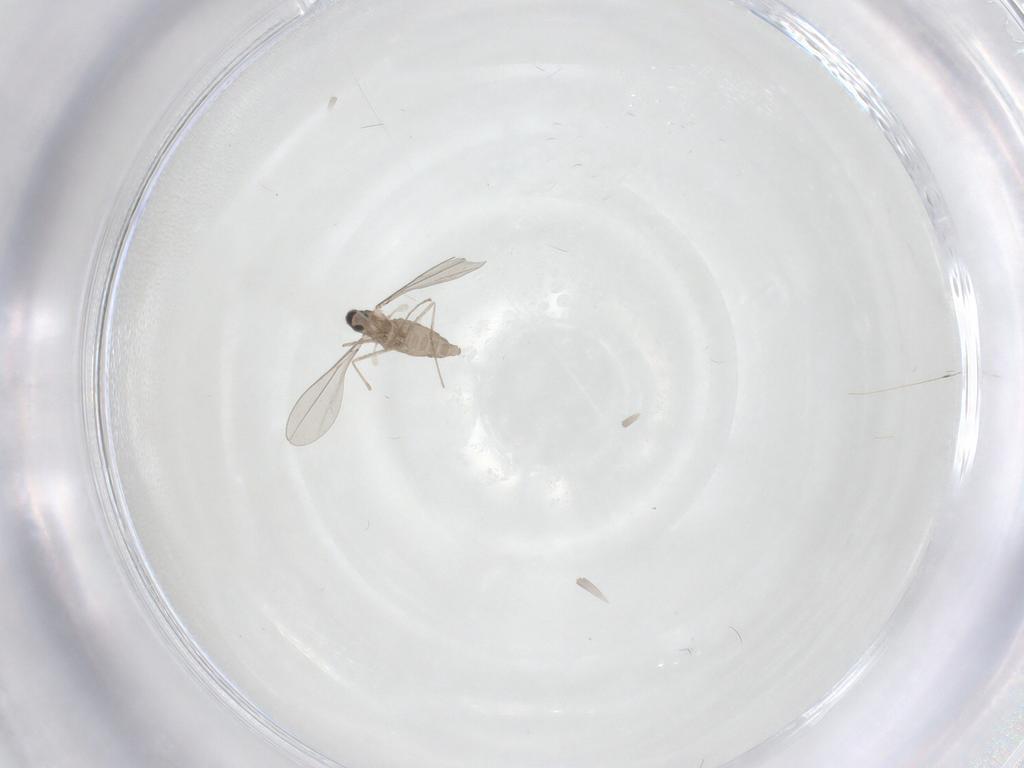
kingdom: Animalia
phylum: Arthropoda
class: Insecta
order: Diptera
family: Cecidomyiidae
